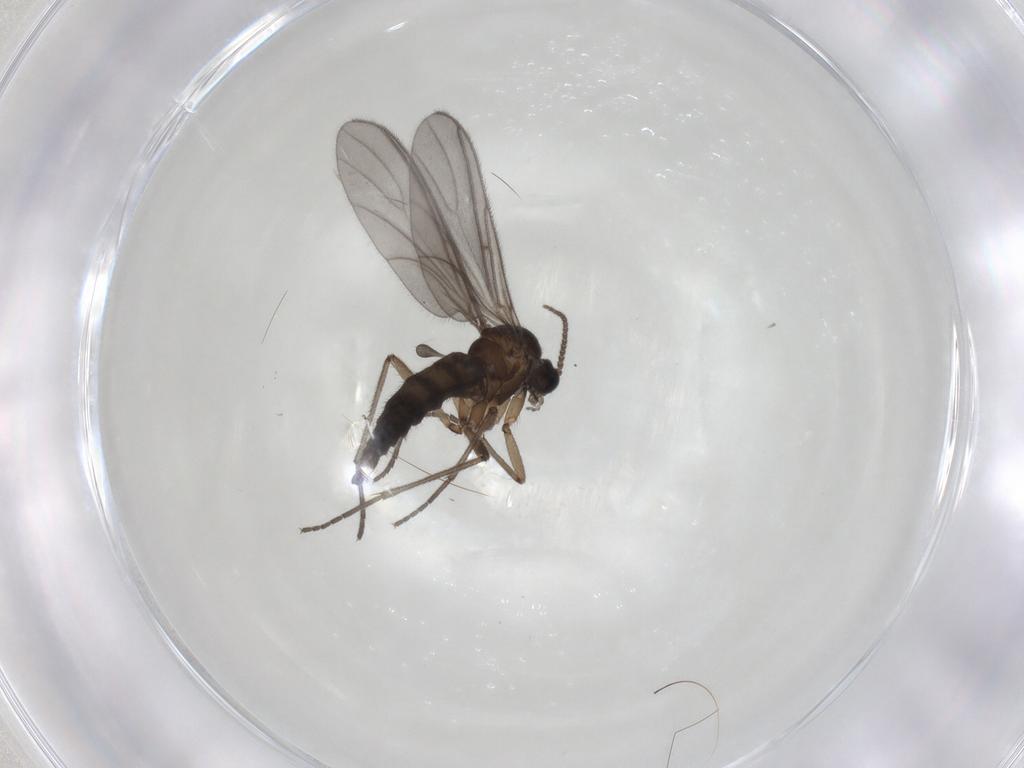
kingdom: Animalia
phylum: Arthropoda
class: Insecta
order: Diptera
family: Sciaridae
